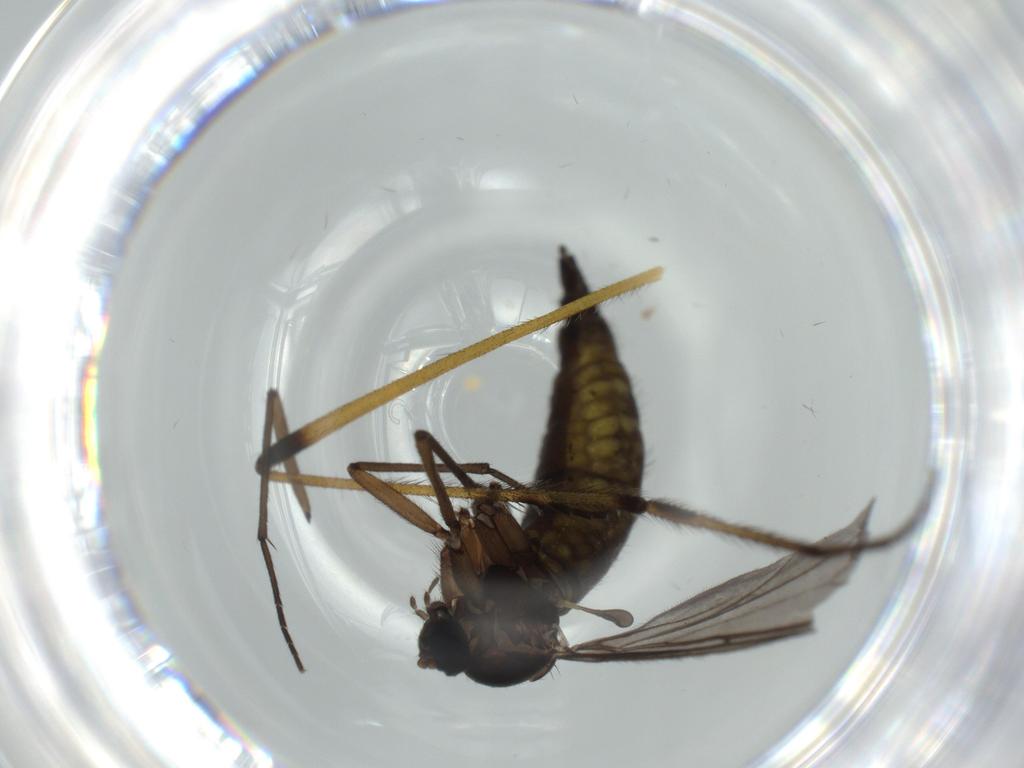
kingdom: Animalia
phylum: Arthropoda
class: Insecta
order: Diptera
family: Sciaridae
